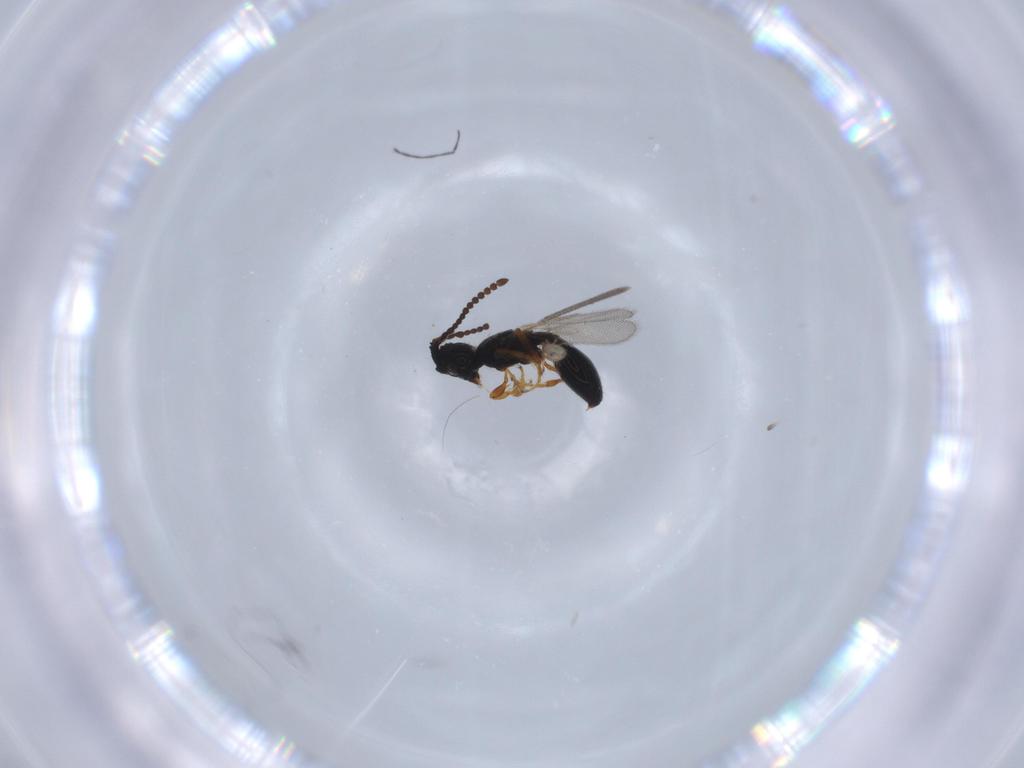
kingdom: Animalia
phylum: Arthropoda
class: Insecta
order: Hymenoptera
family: Diapriidae
